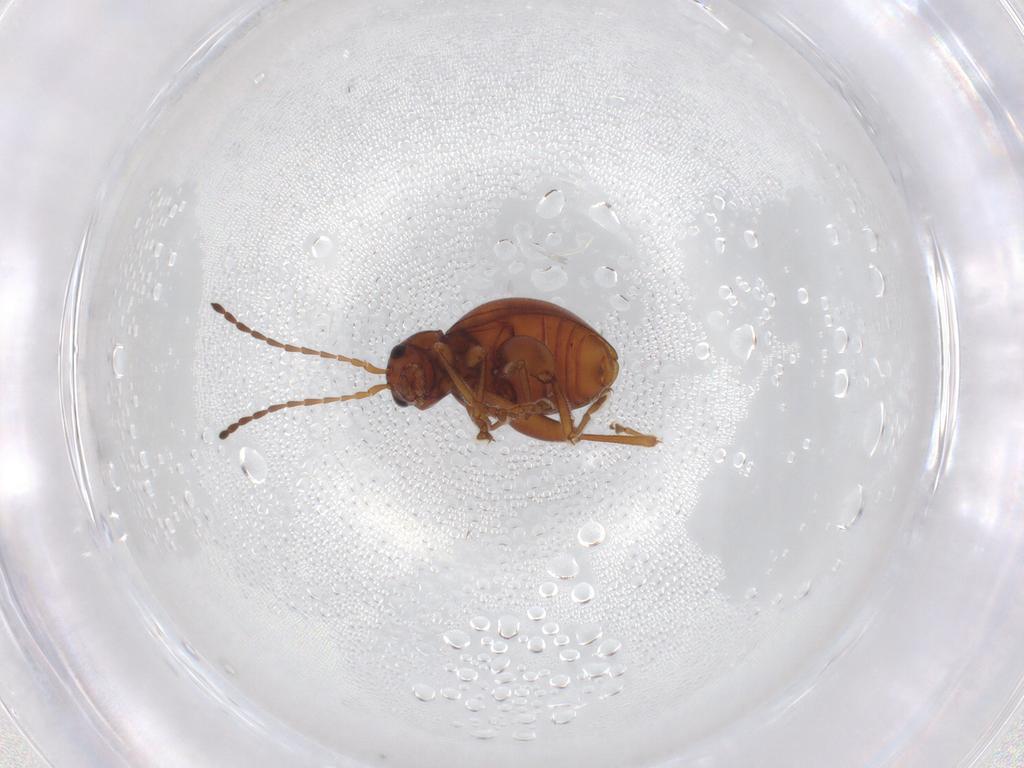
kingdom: Animalia
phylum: Arthropoda
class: Insecta
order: Coleoptera
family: Chrysomelidae
